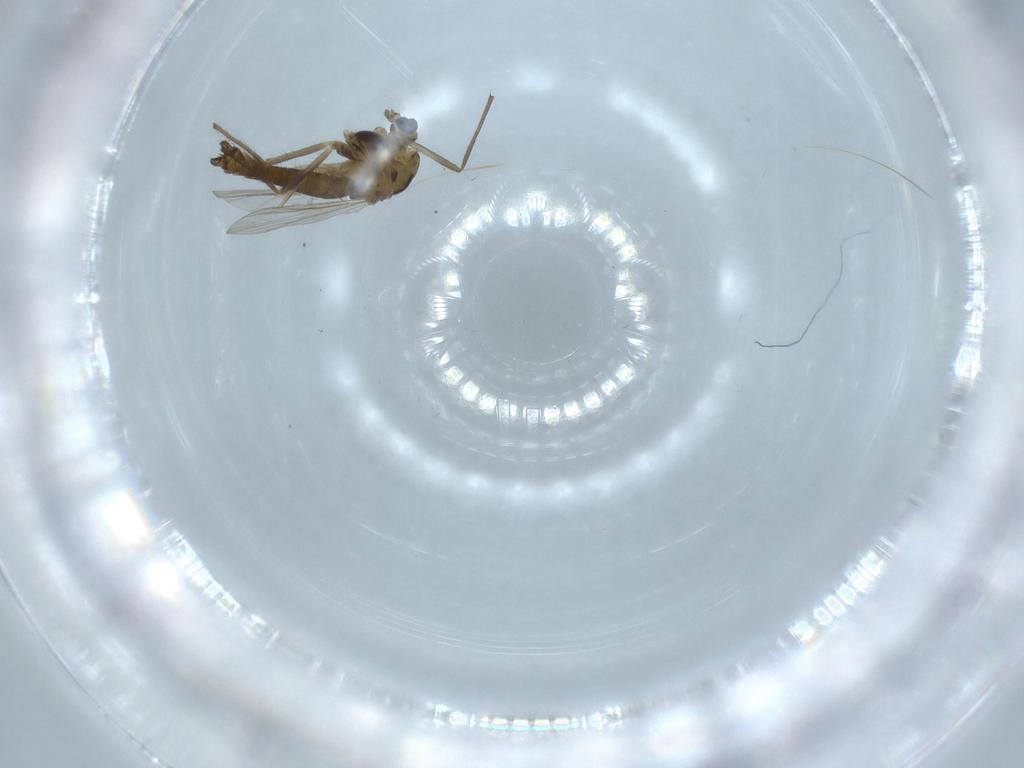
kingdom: Animalia
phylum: Arthropoda
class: Insecta
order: Diptera
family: Chironomidae
